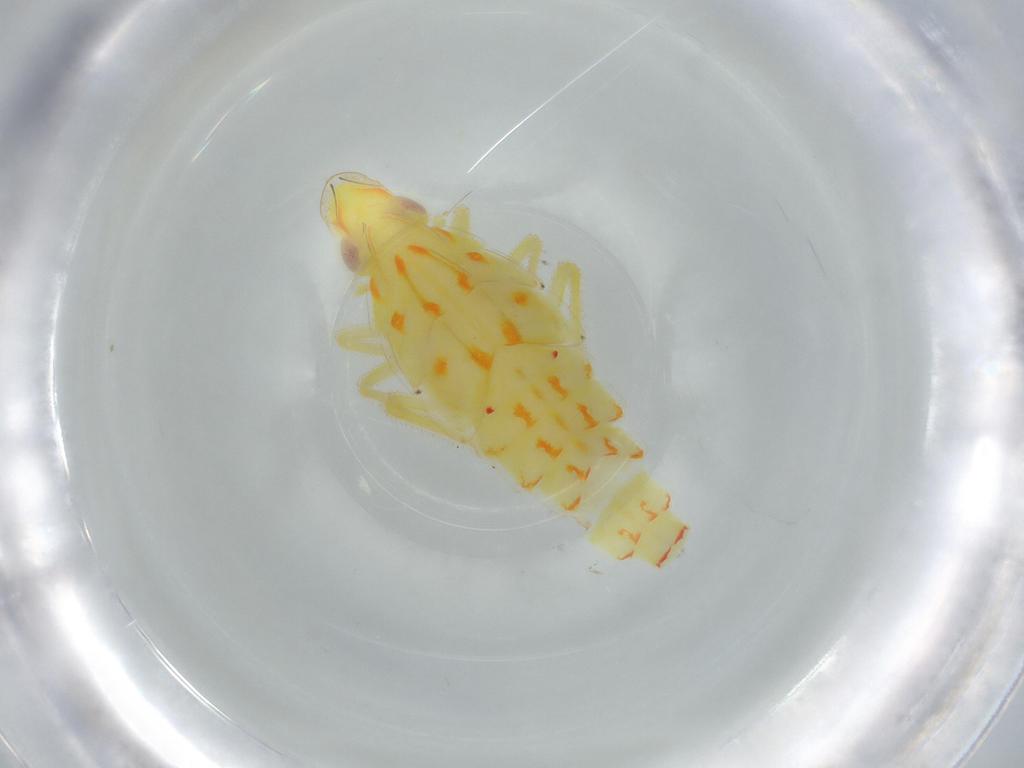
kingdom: Animalia
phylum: Arthropoda
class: Insecta
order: Hemiptera
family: Tropiduchidae
